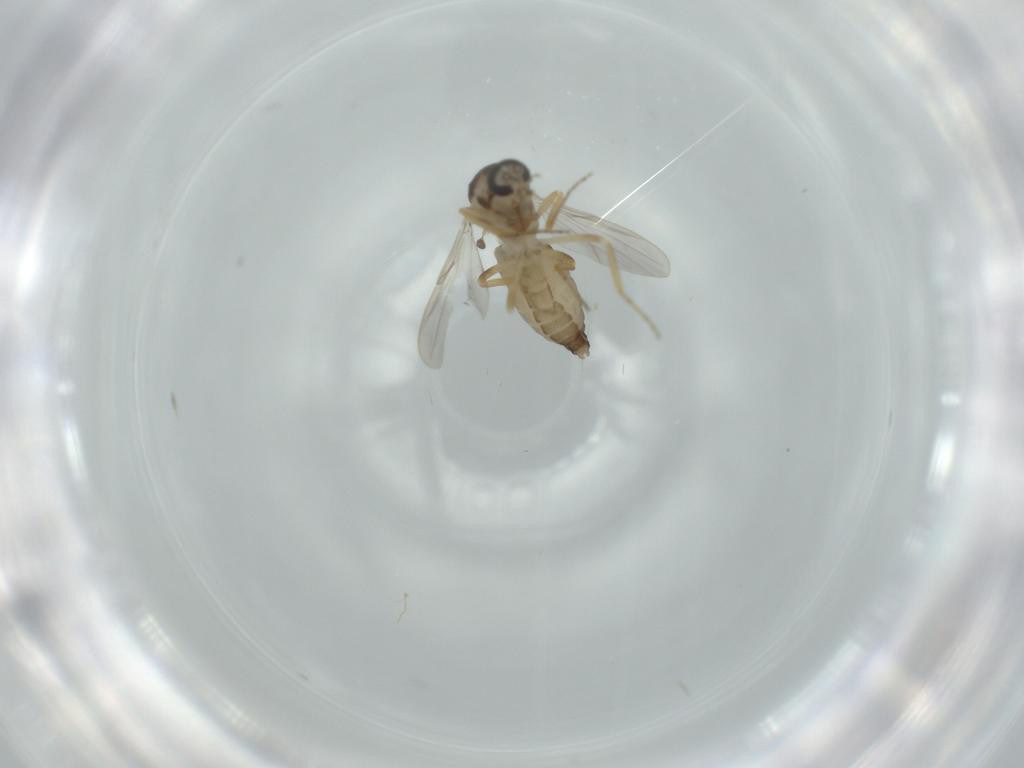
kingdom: Animalia
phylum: Arthropoda
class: Insecta
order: Diptera
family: Ceratopogonidae
